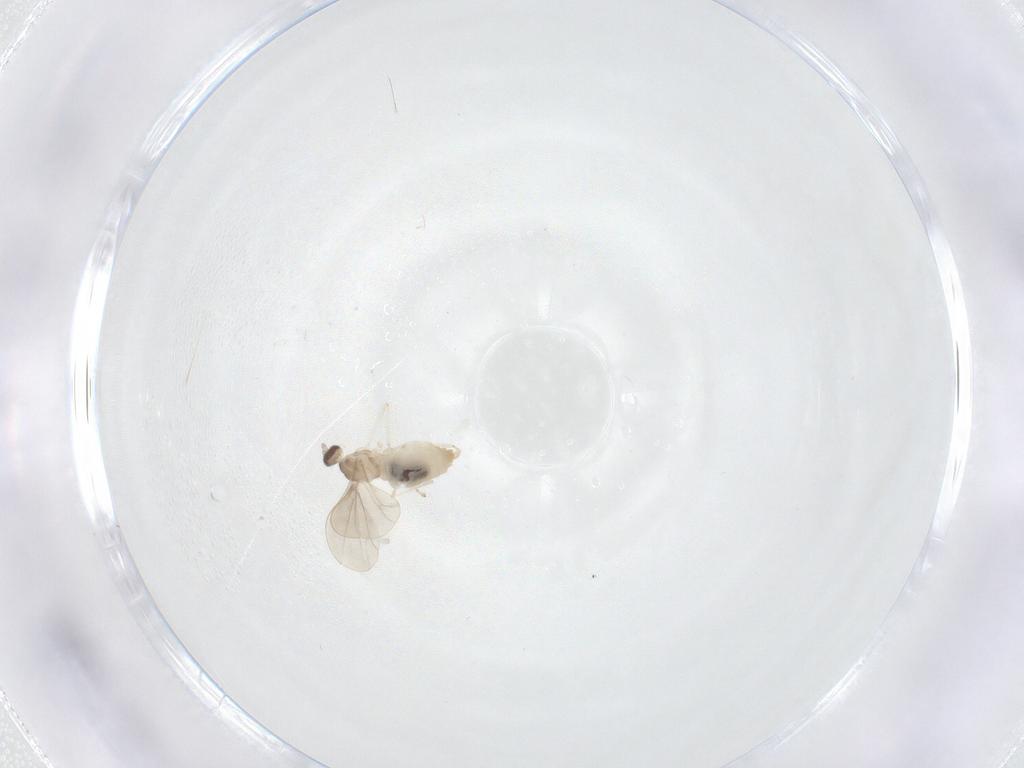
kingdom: Animalia
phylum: Arthropoda
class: Insecta
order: Diptera
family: Cecidomyiidae
